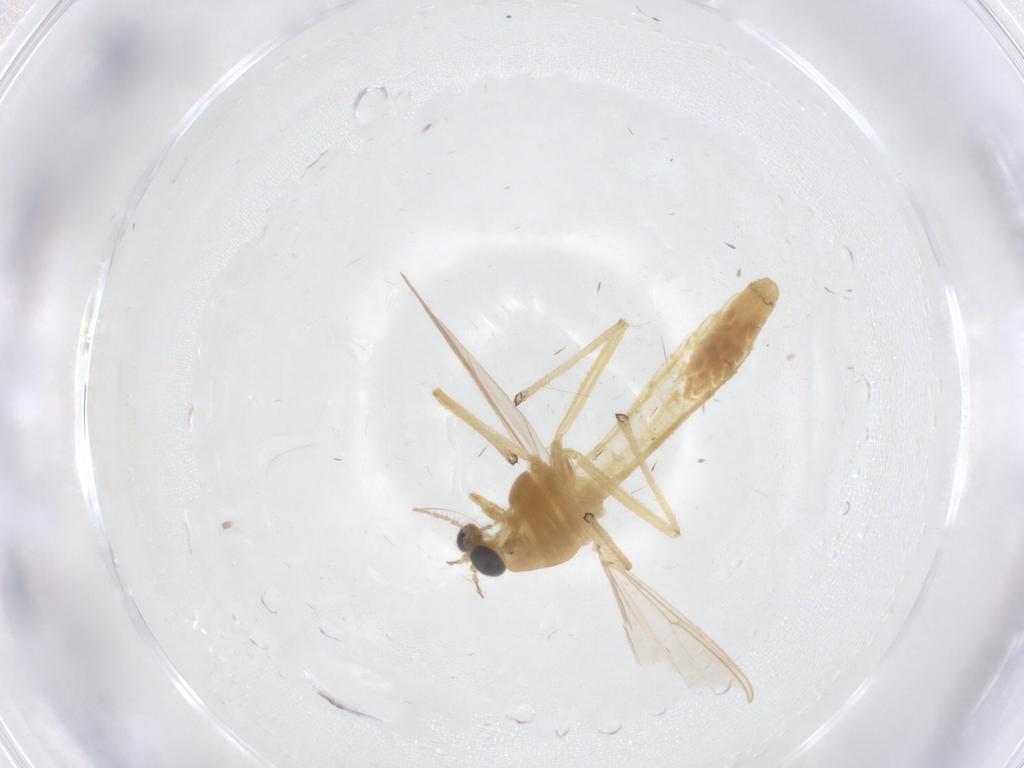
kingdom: Animalia
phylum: Arthropoda
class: Insecta
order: Diptera
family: Chironomidae
